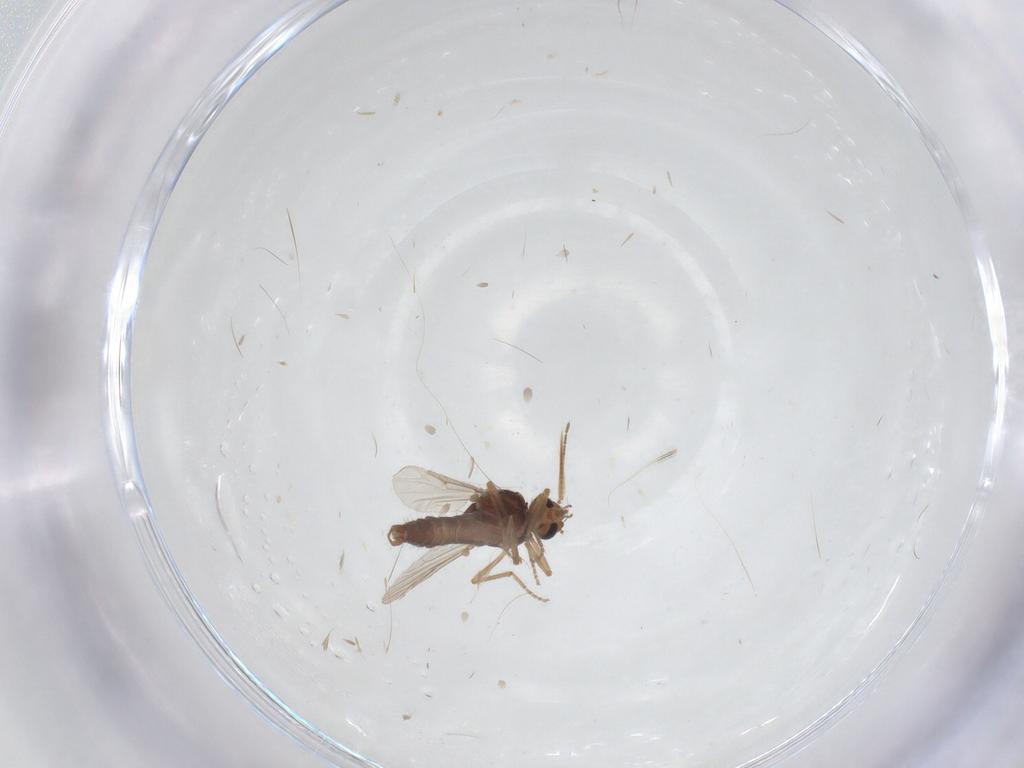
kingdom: Animalia
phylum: Arthropoda
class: Insecta
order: Diptera
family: Ceratopogonidae
